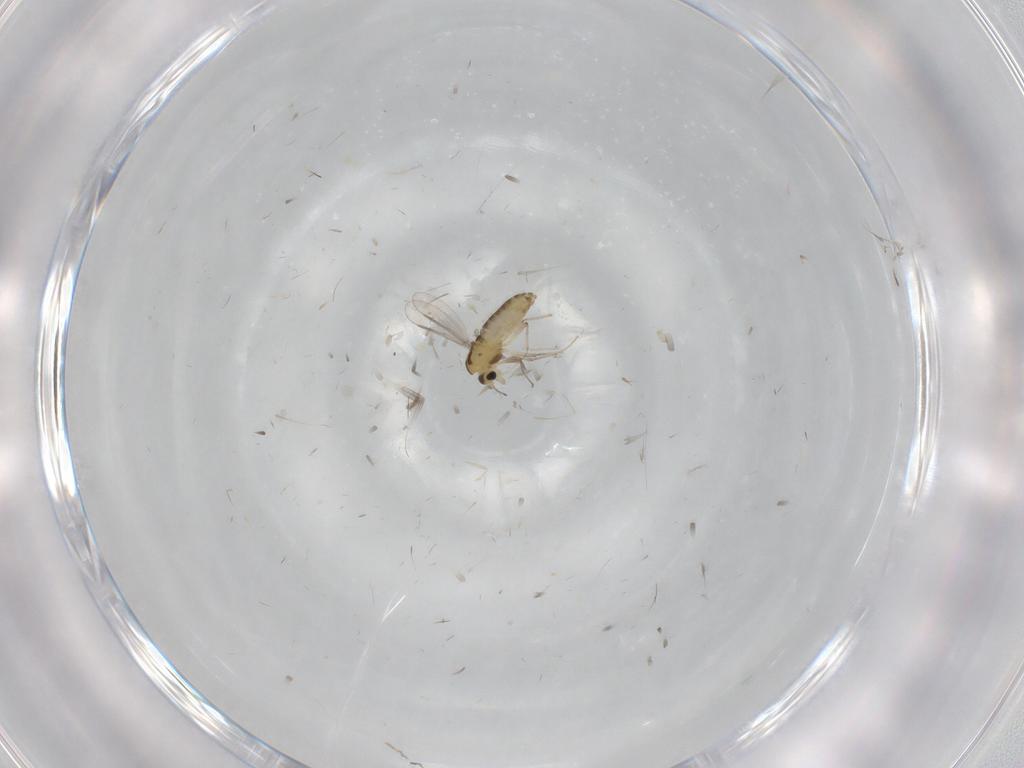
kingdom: Animalia
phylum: Arthropoda
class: Insecta
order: Diptera
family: Chironomidae
